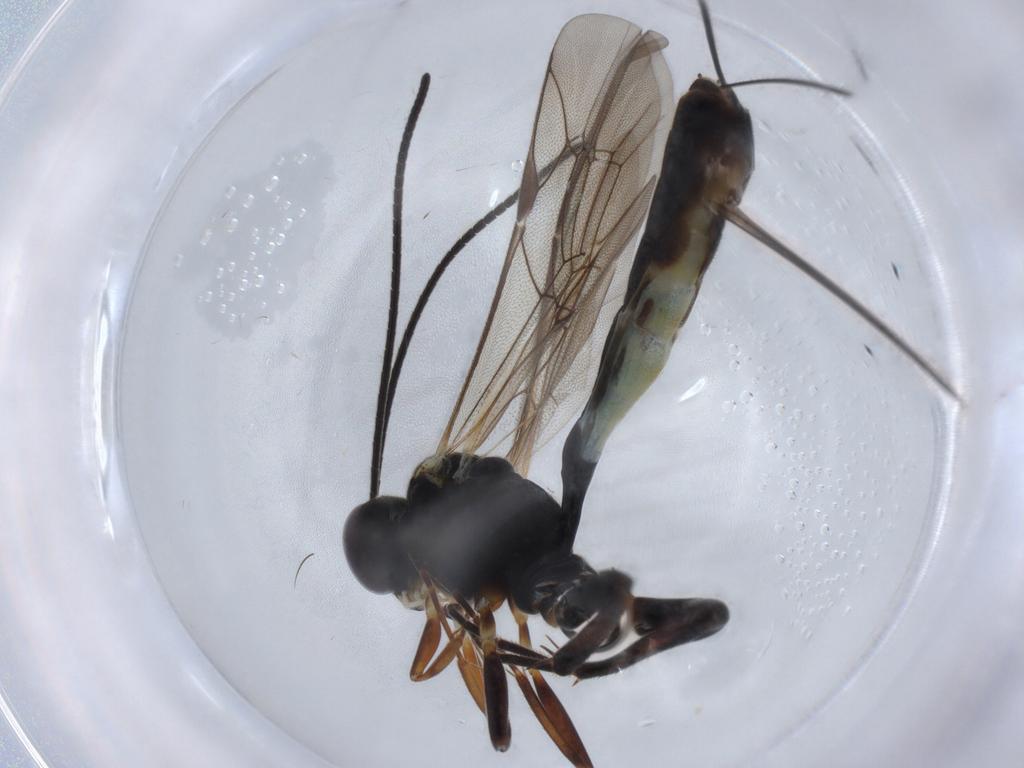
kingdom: Animalia
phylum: Arthropoda
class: Insecta
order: Hymenoptera
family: Ichneumonidae
